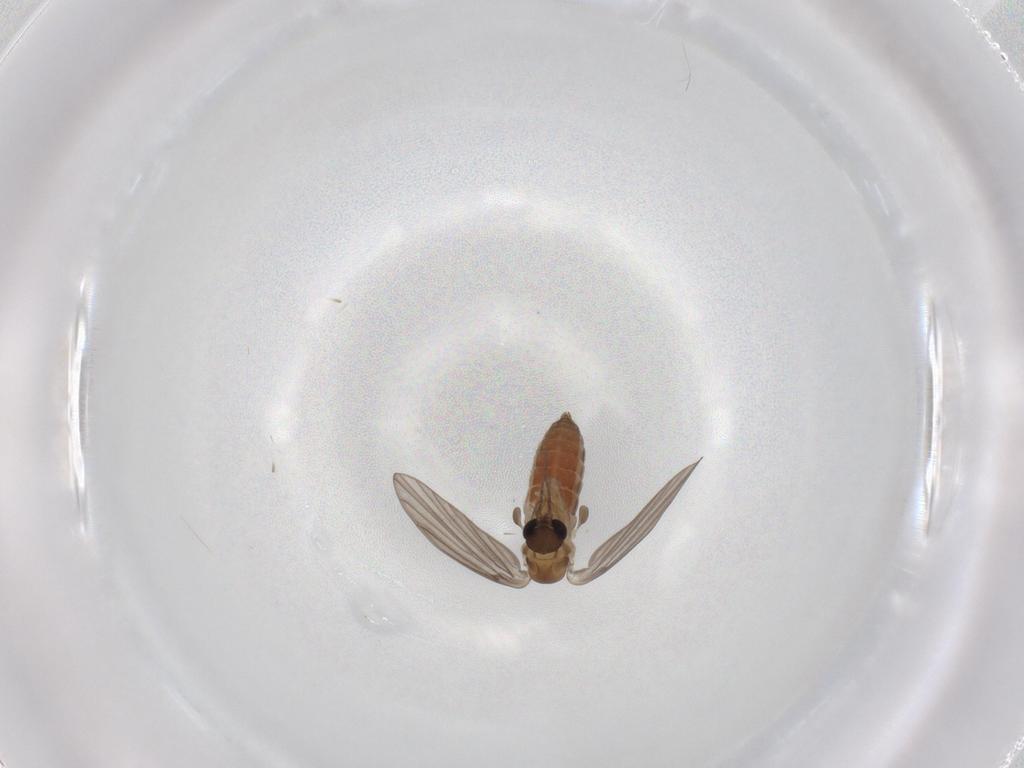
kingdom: Animalia
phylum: Arthropoda
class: Insecta
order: Diptera
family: Chironomidae
